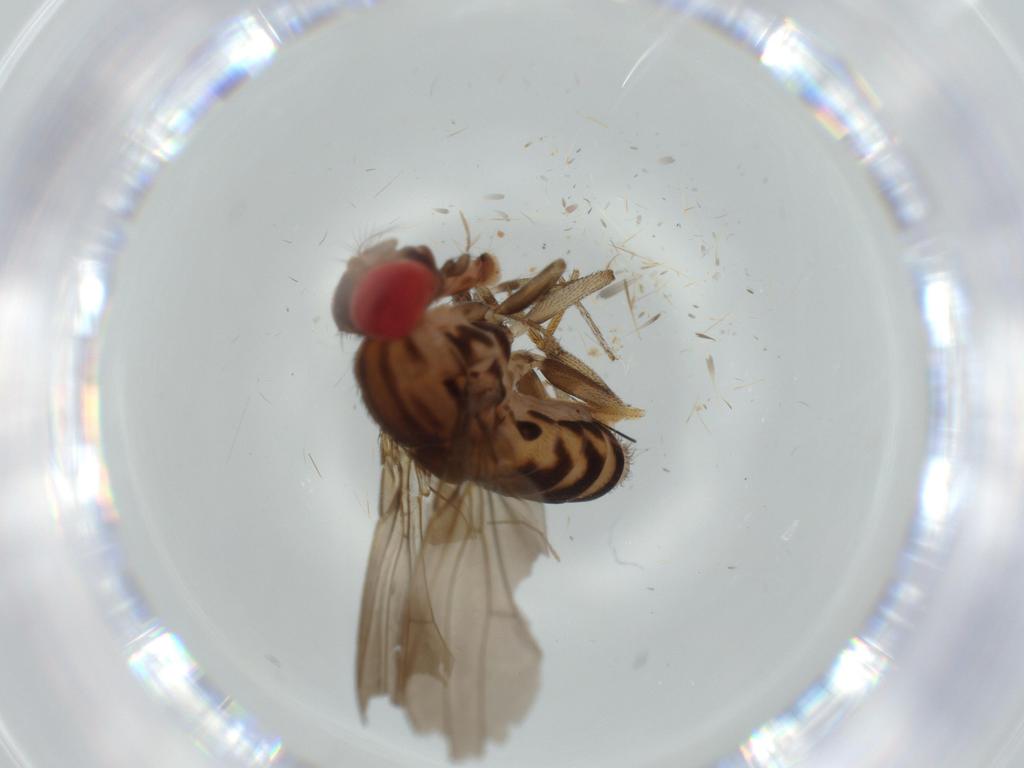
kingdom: Animalia
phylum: Arthropoda
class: Insecta
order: Diptera
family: Drosophilidae
